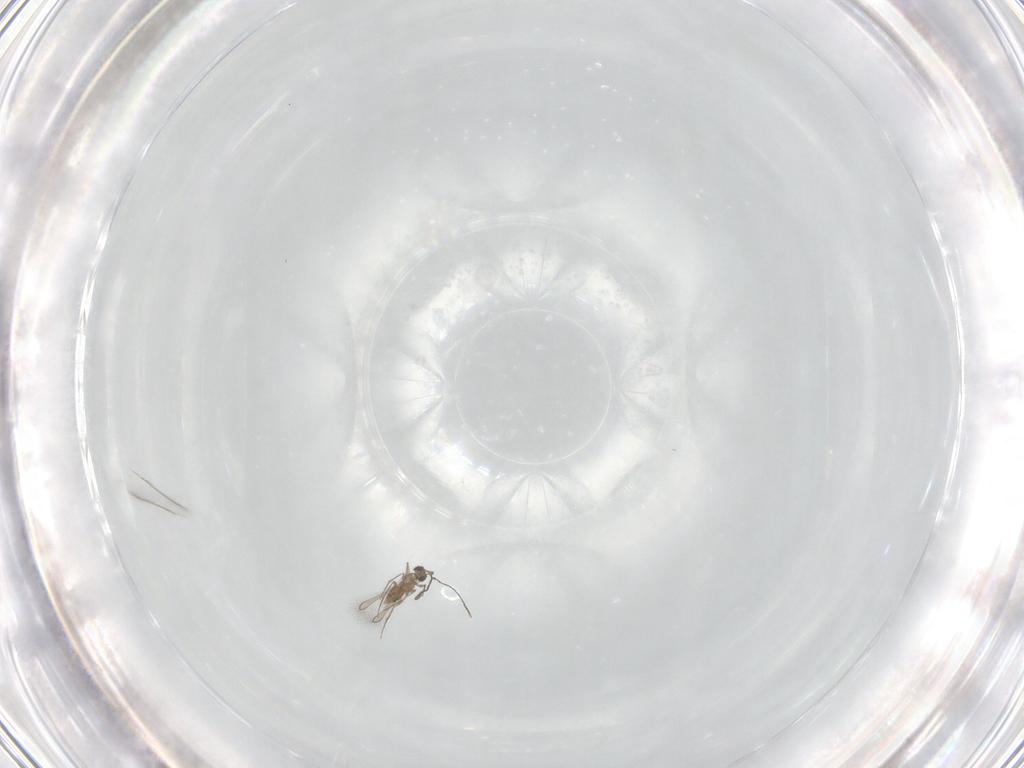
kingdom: Animalia
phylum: Arthropoda
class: Insecta
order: Hymenoptera
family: Mymaridae
